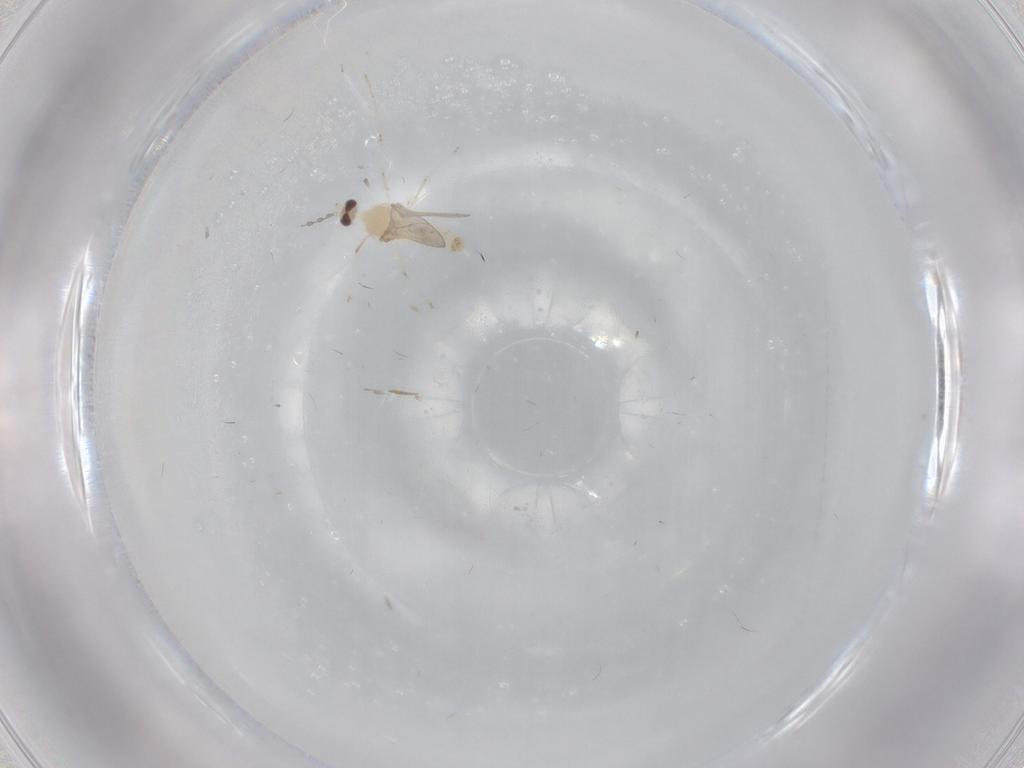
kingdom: Animalia
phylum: Arthropoda
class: Insecta
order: Diptera
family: Cecidomyiidae
